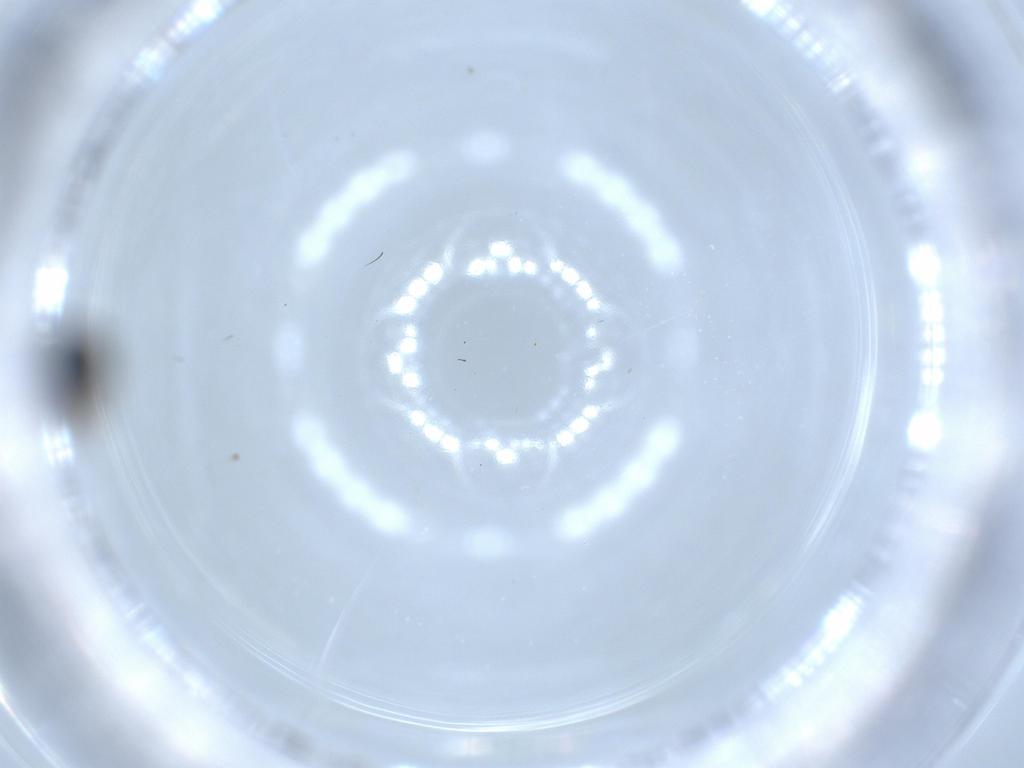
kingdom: Animalia
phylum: Arthropoda
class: Insecta
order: Hymenoptera
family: Scelionidae
